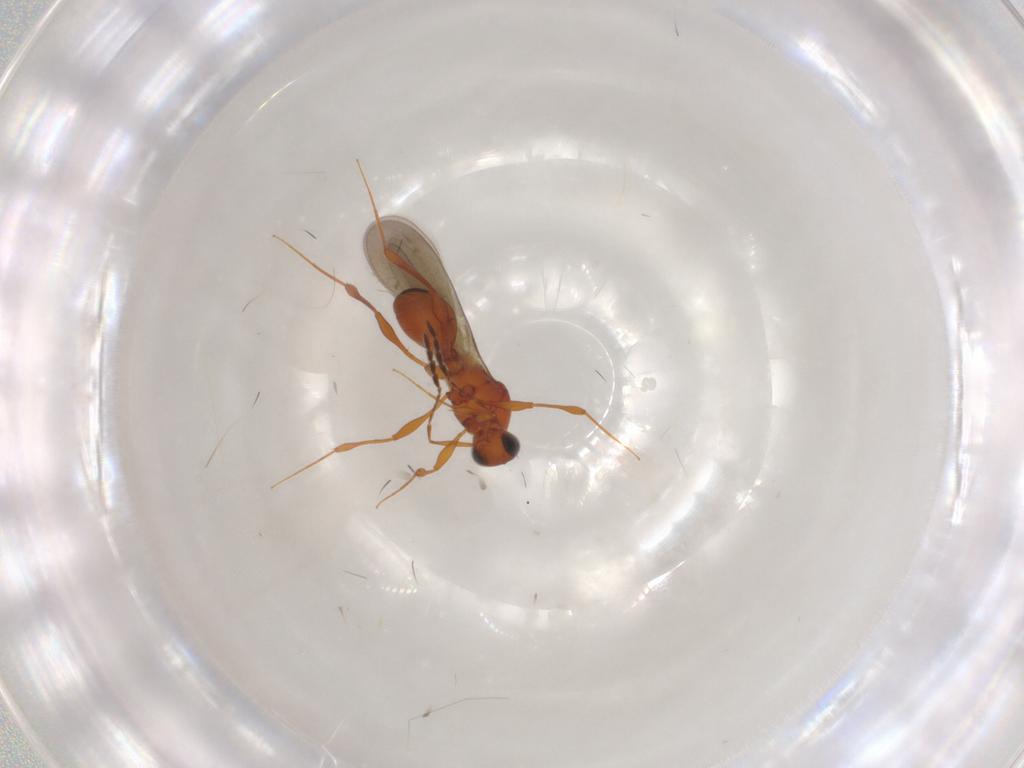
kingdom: Animalia
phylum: Arthropoda
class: Insecta
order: Hymenoptera
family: Platygastridae
